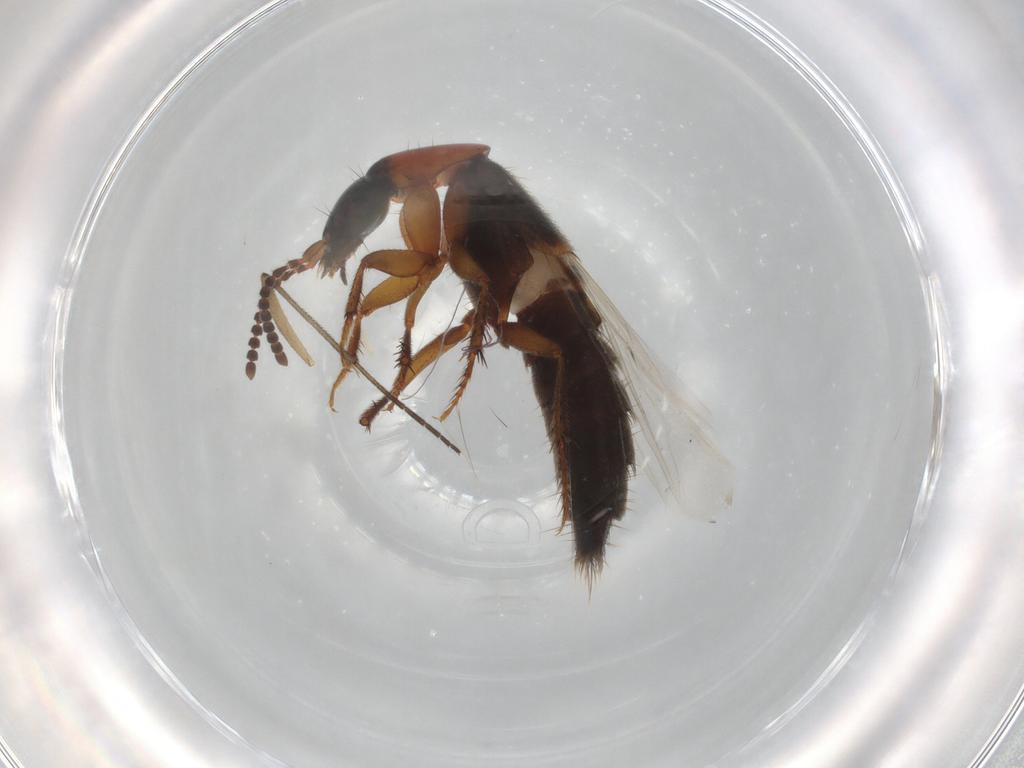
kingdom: Animalia
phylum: Arthropoda
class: Insecta
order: Coleoptera
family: Staphylinidae
